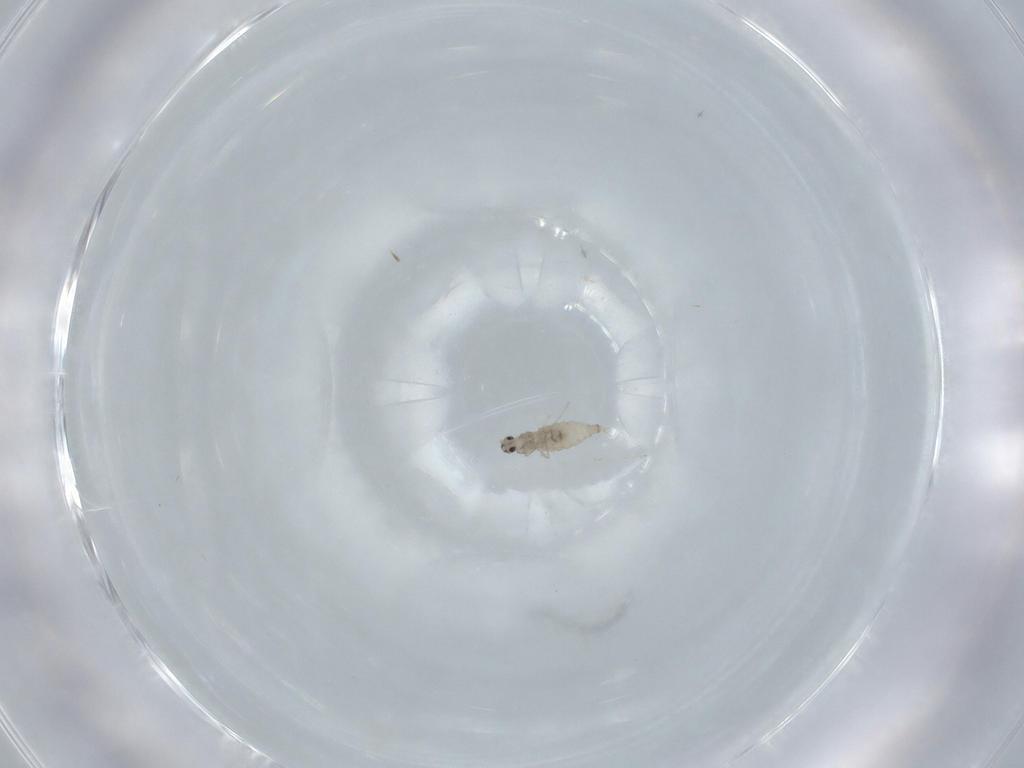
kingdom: Animalia
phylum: Arthropoda
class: Insecta
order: Diptera
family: Cecidomyiidae
